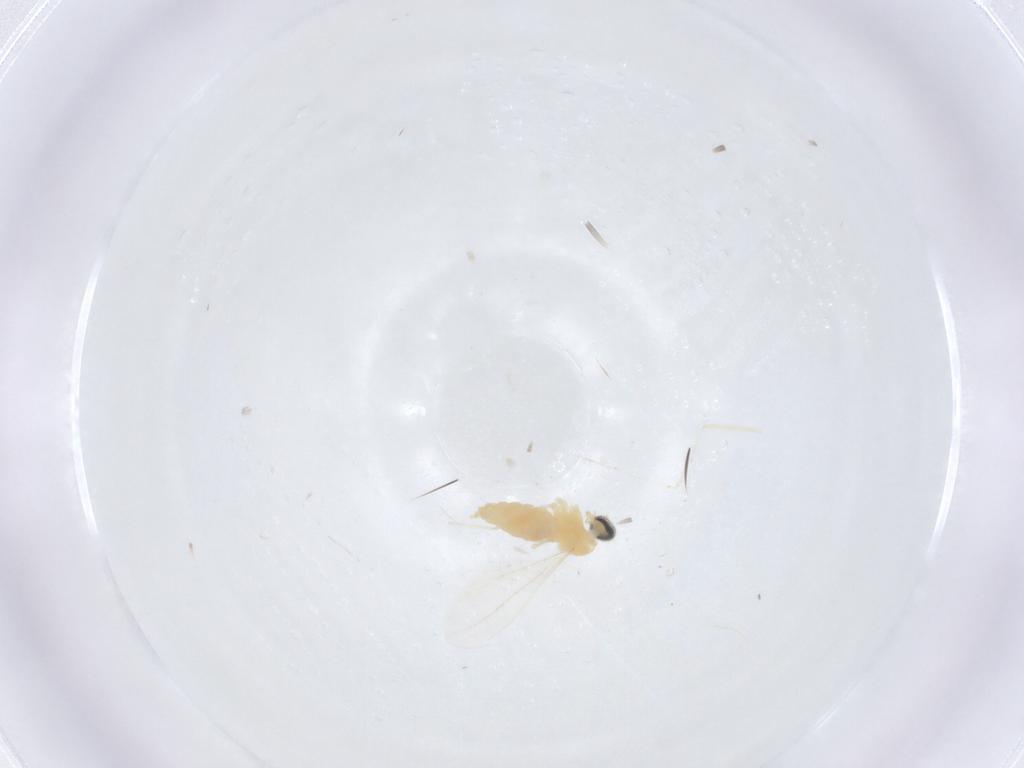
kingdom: Animalia
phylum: Arthropoda
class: Insecta
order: Diptera
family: Cecidomyiidae
